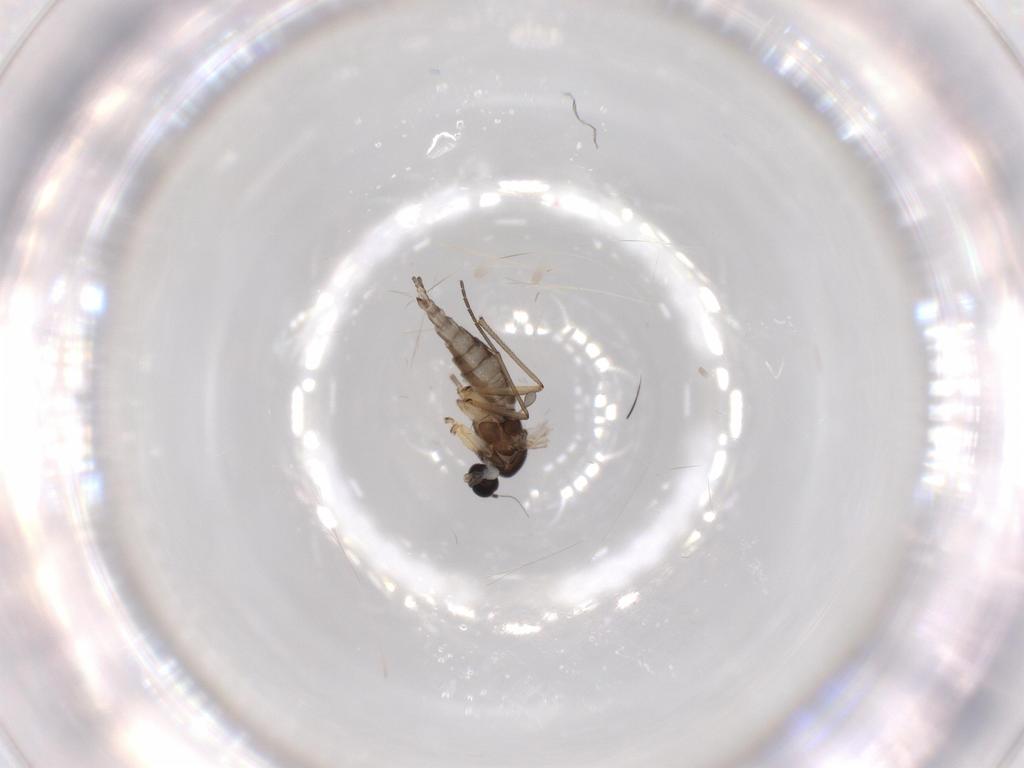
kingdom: Animalia
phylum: Arthropoda
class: Insecta
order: Diptera
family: Sciaridae
